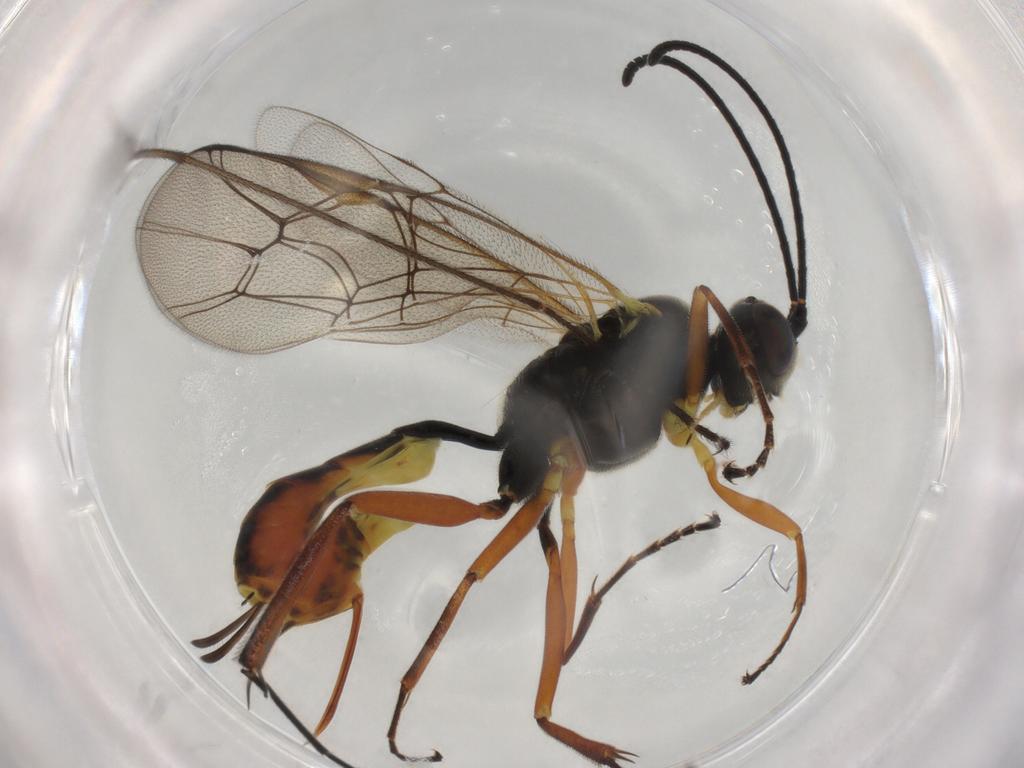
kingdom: Animalia
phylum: Arthropoda
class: Insecta
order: Hymenoptera
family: Ichneumonidae
